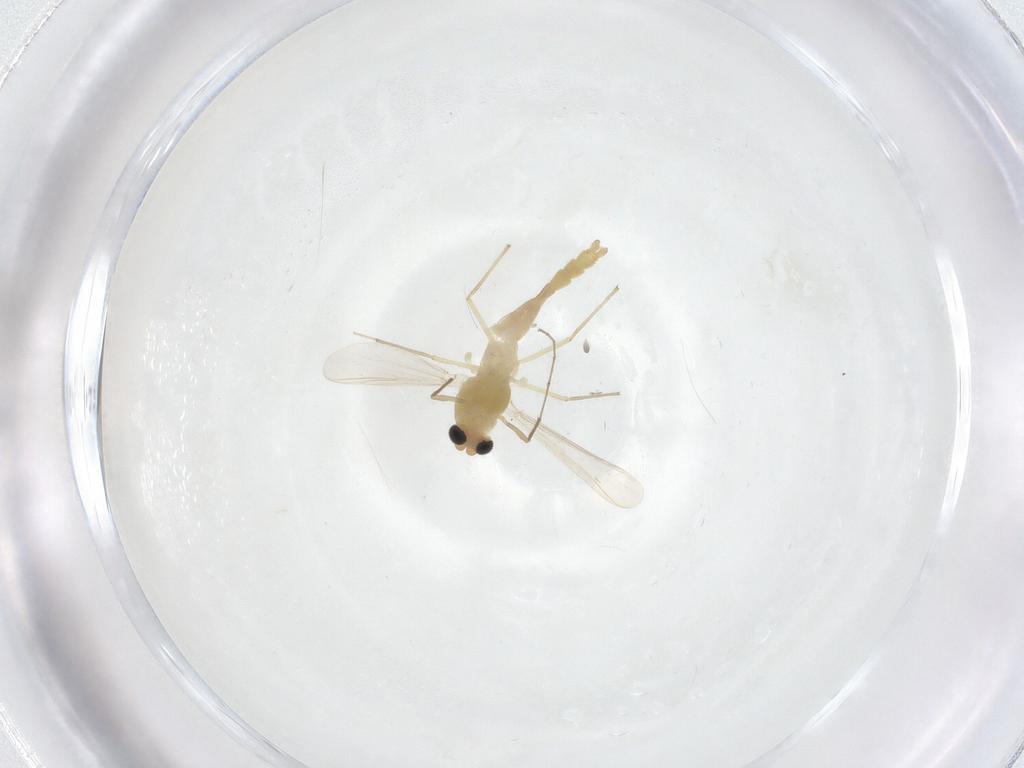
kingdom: Animalia
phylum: Arthropoda
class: Insecta
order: Diptera
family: Chironomidae
